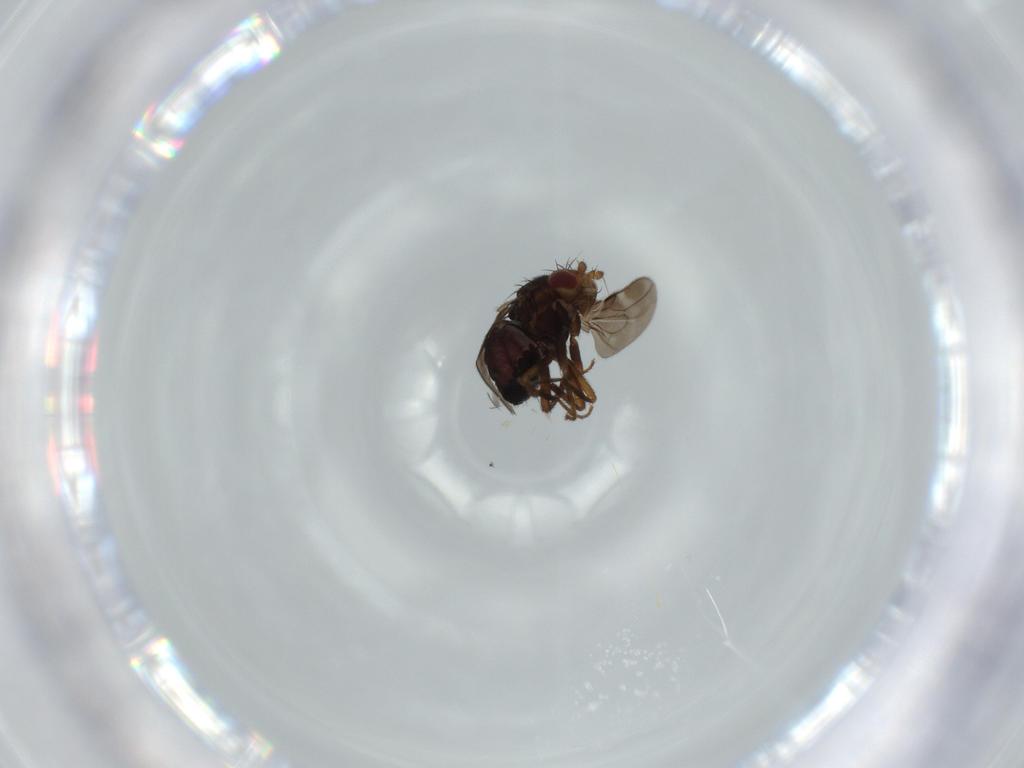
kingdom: Animalia
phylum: Arthropoda
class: Insecta
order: Diptera
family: Sphaeroceridae
